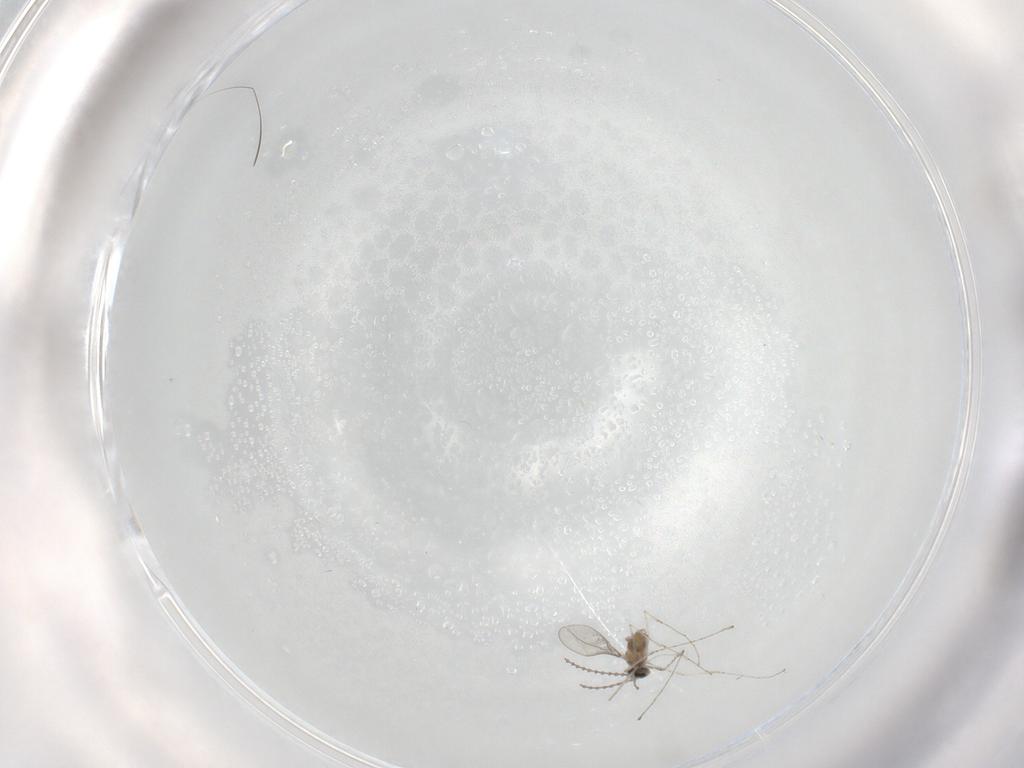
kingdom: Animalia
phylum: Arthropoda
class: Insecta
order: Diptera
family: Cecidomyiidae
